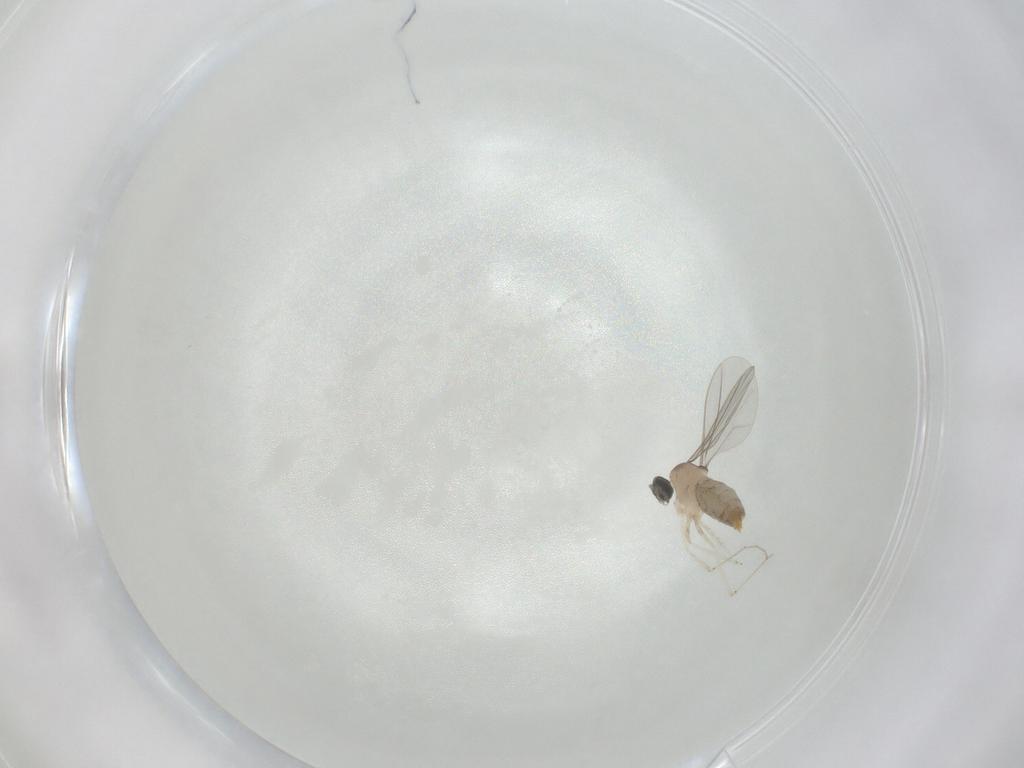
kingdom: Animalia
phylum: Arthropoda
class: Insecta
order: Diptera
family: Cecidomyiidae
